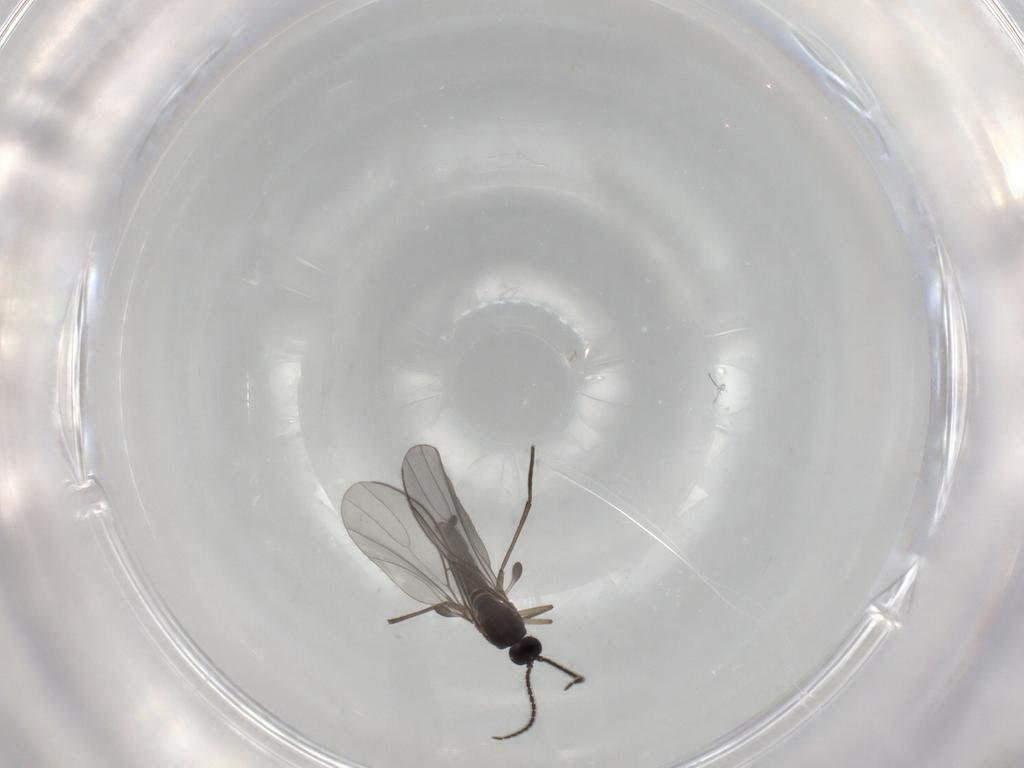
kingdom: Animalia
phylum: Arthropoda
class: Insecta
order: Diptera
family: Sciaridae
